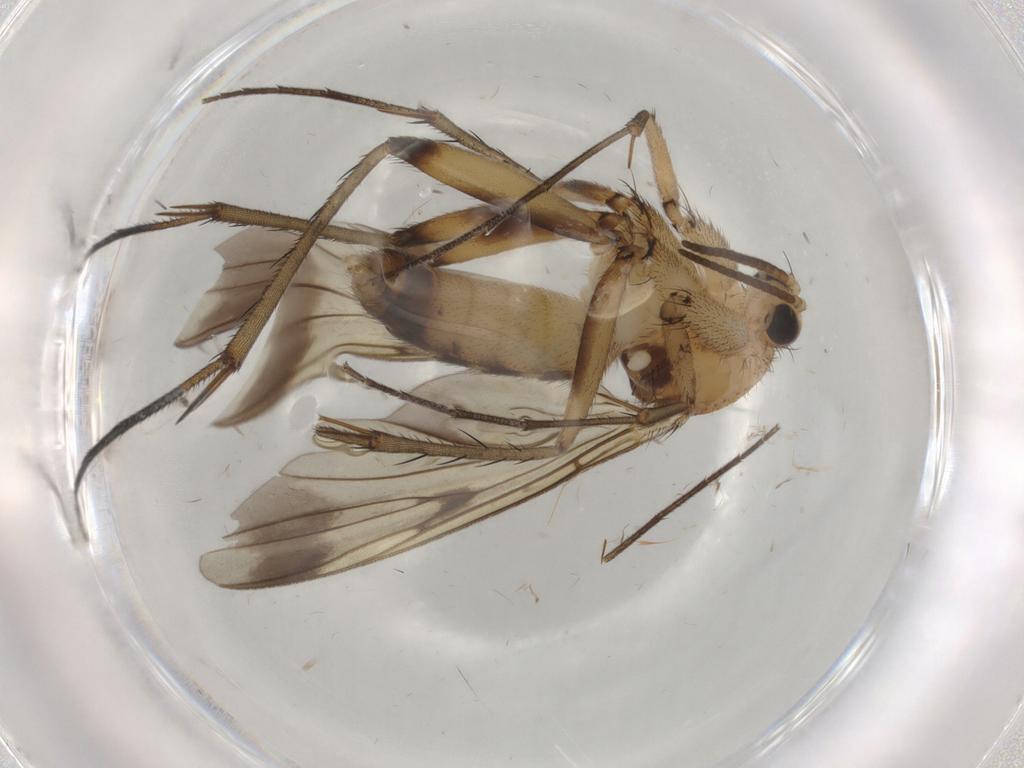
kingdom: Animalia
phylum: Arthropoda
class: Insecta
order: Diptera
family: Mycetophilidae
